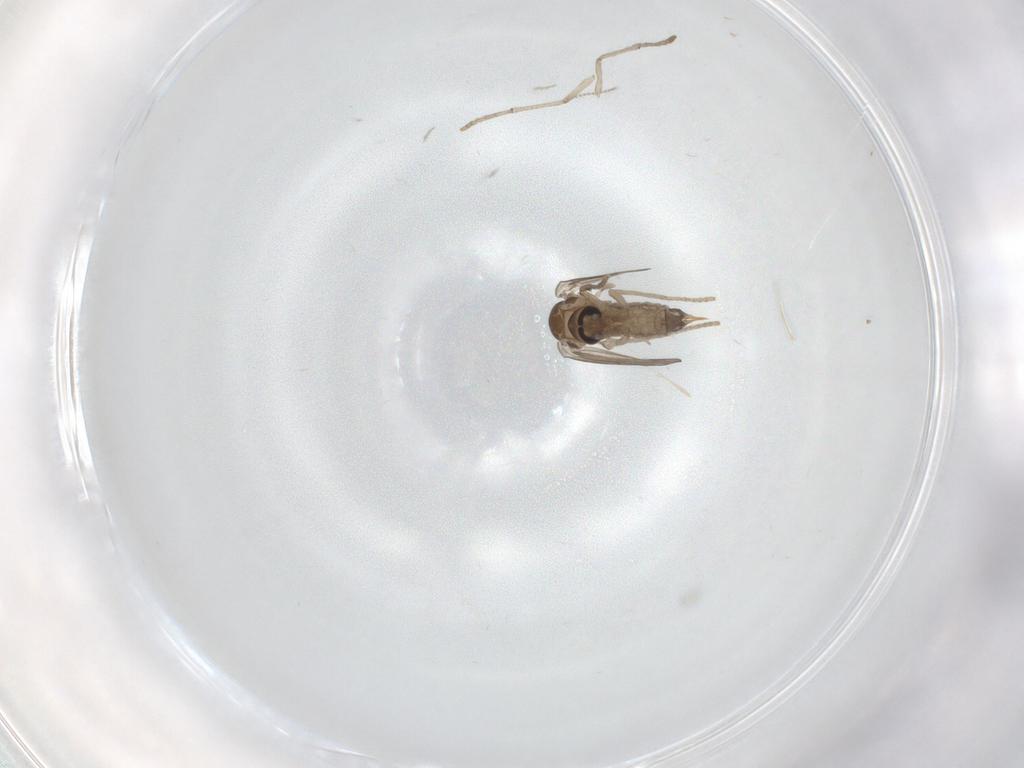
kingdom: Animalia
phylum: Arthropoda
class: Insecta
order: Diptera
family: Psychodidae
